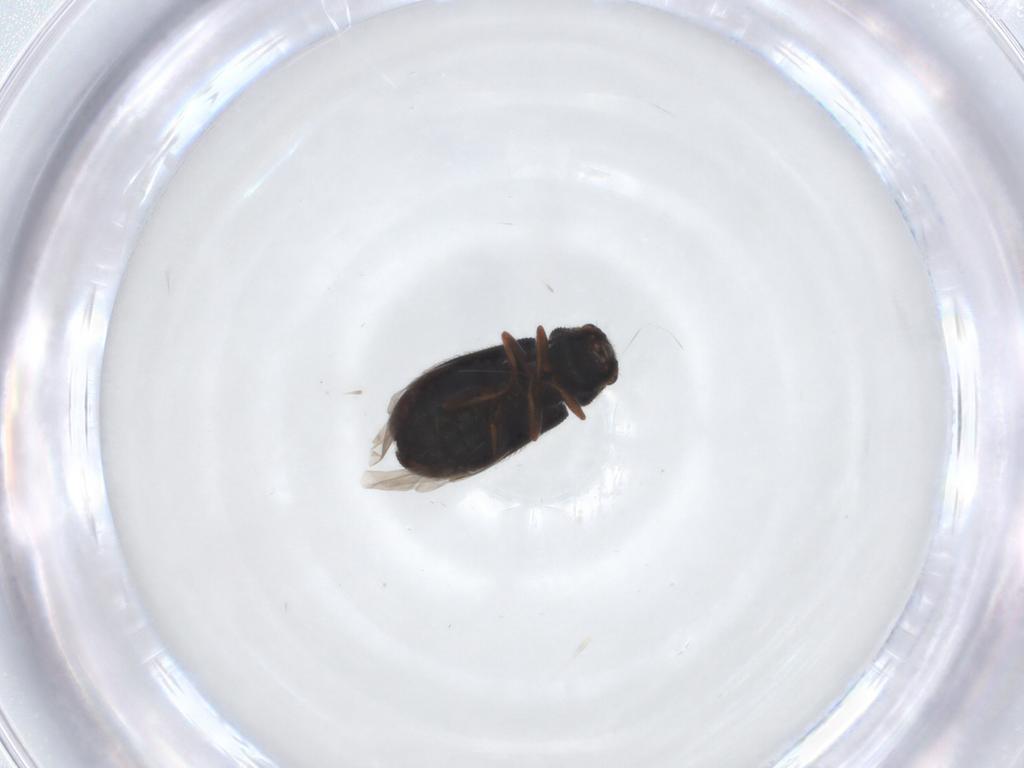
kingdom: Animalia
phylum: Arthropoda
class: Insecta
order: Coleoptera
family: Melyridae
